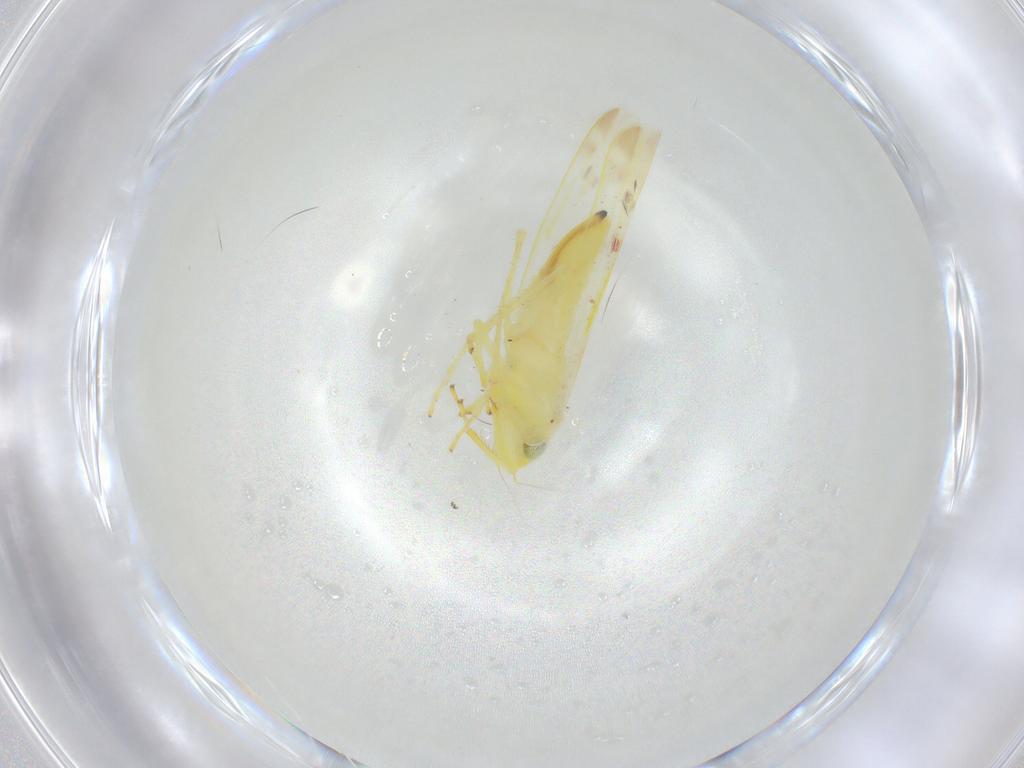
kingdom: Animalia
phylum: Arthropoda
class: Insecta
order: Hemiptera
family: Cicadellidae
